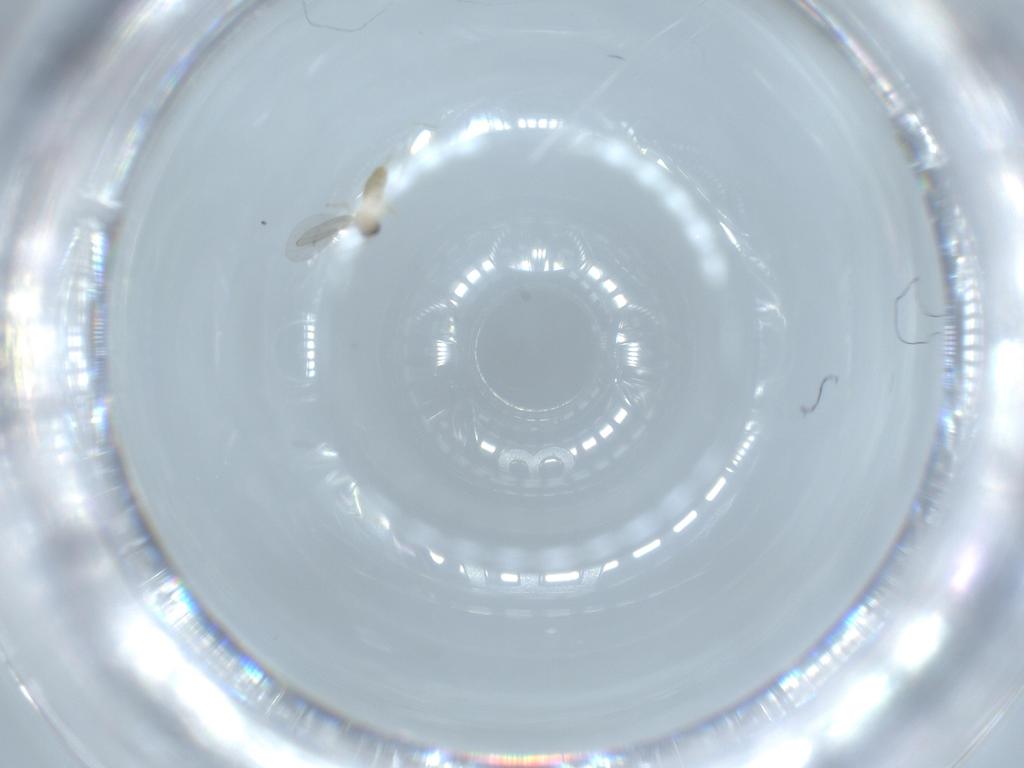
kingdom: Animalia
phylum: Arthropoda
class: Insecta
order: Diptera
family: Cecidomyiidae
